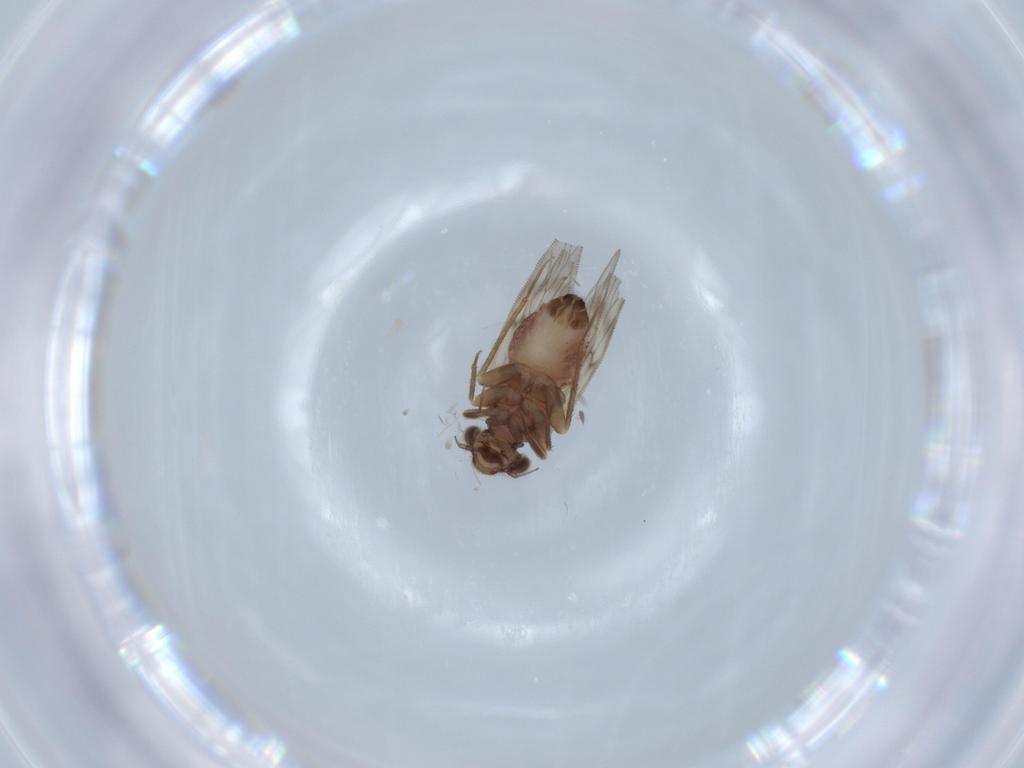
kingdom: Animalia
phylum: Arthropoda
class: Insecta
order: Psocodea
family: Lepidopsocidae
